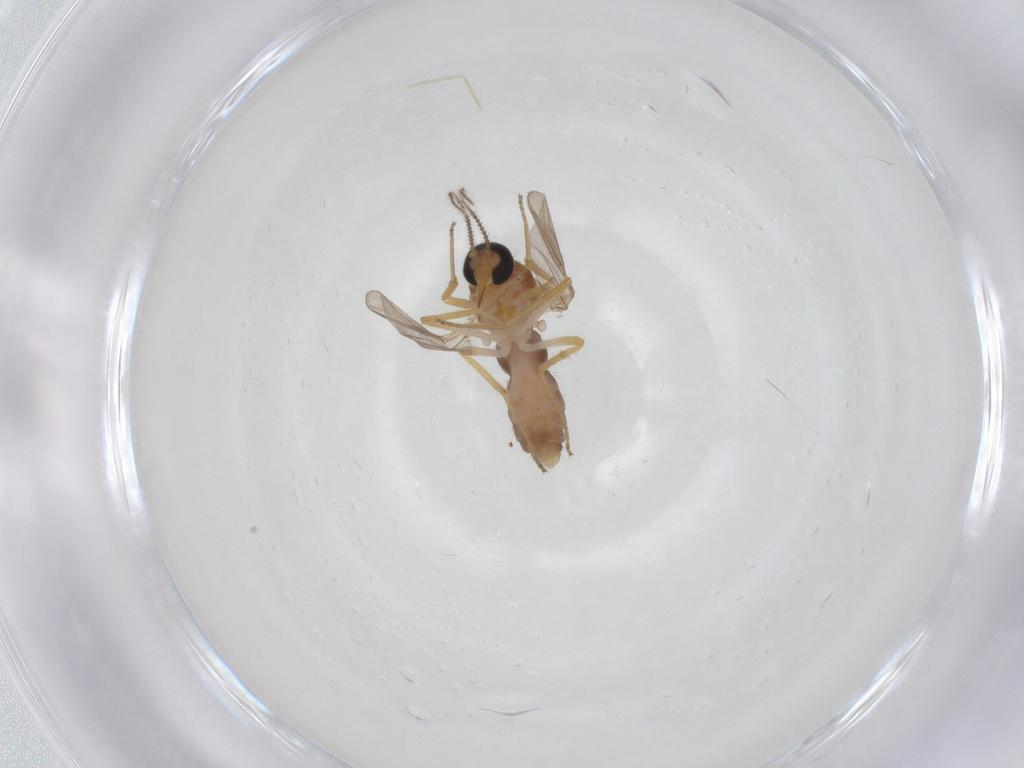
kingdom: Animalia
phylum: Arthropoda
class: Insecta
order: Diptera
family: Ceratopogonidae
